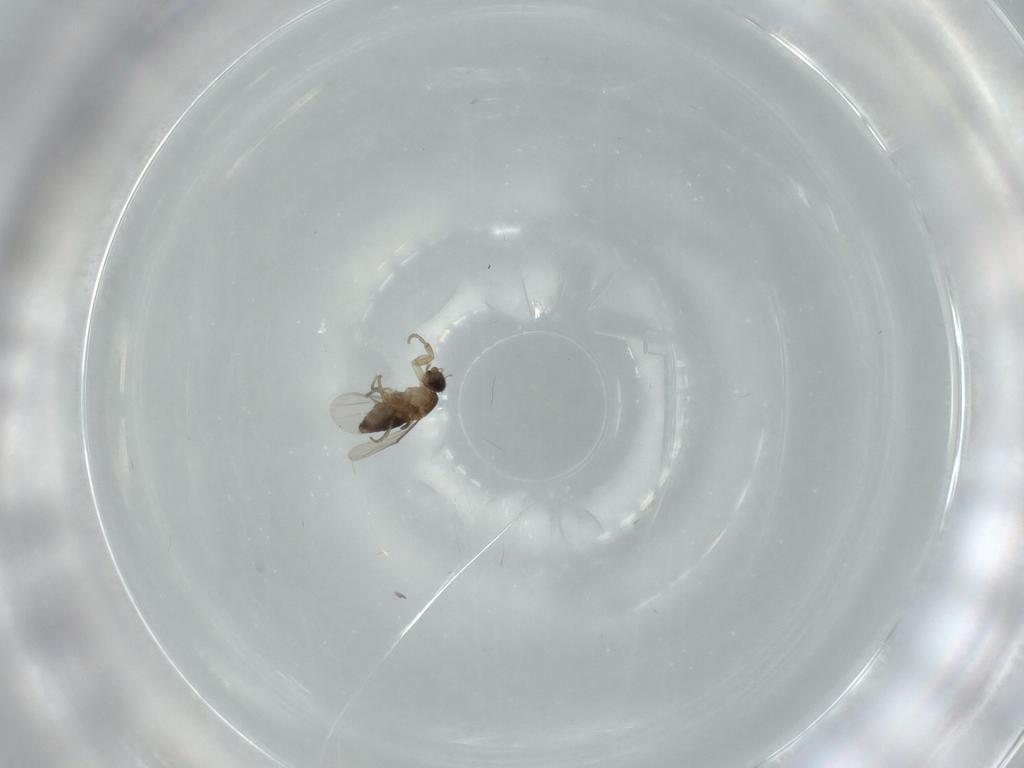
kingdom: Animalia
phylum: Arthropoda
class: Insecta
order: Diptera
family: Phoridae
